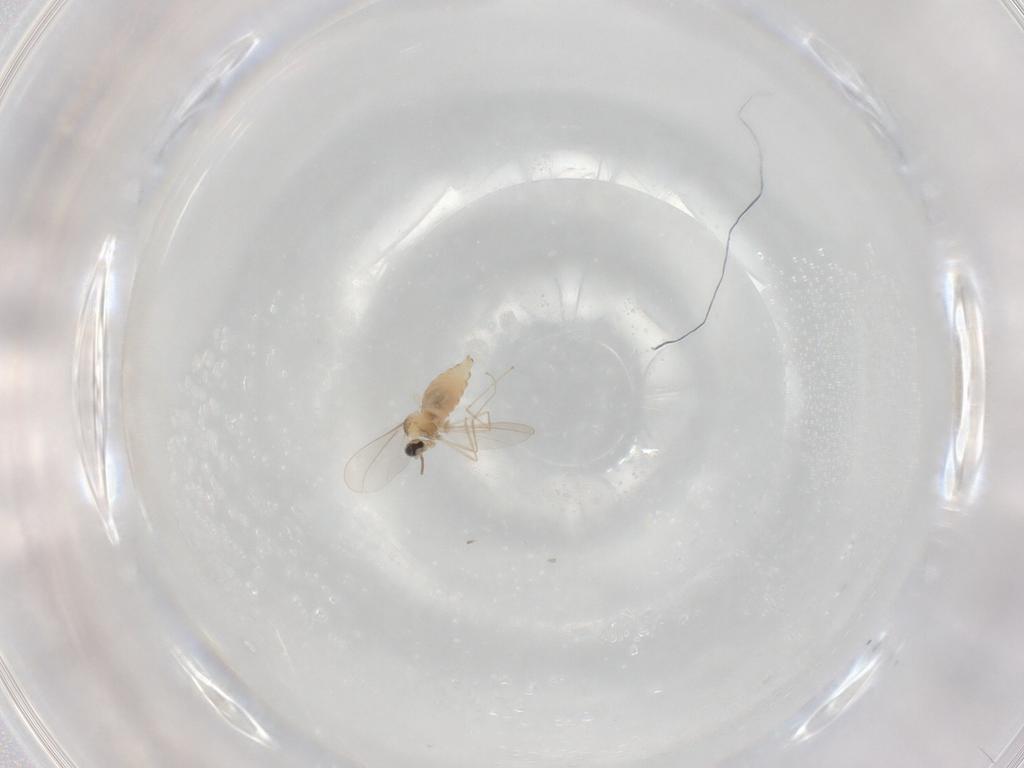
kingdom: Animalia
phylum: Arthropoda
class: Insecta
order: Diptera
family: Cecidomyiidae
